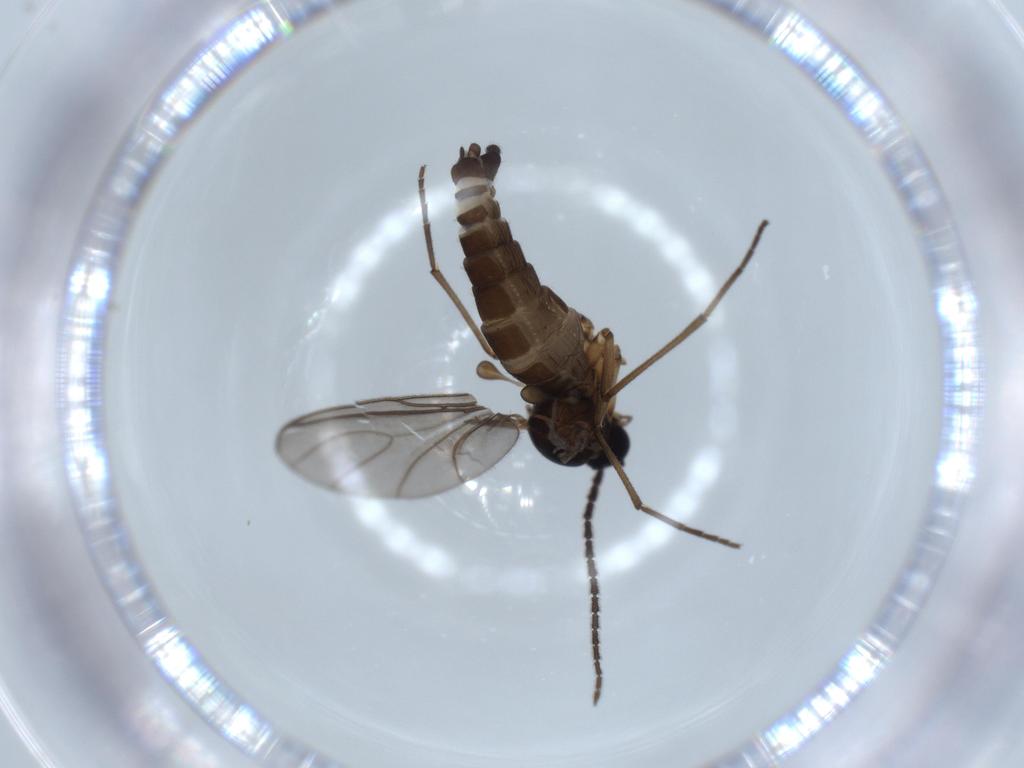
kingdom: Animalia
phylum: Arthropoda
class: Insecta
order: Diptera
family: Sciaridae
